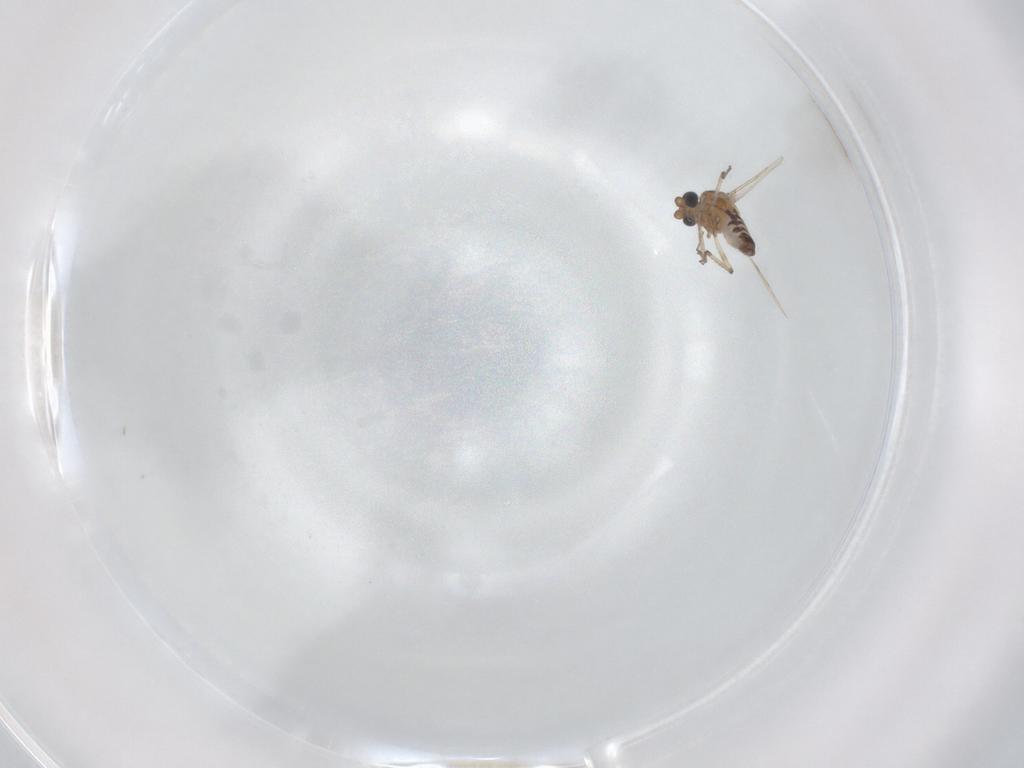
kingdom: Animalia
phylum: Arthropoda
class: Insecta
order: Diptera
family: Ceratopogonidae
